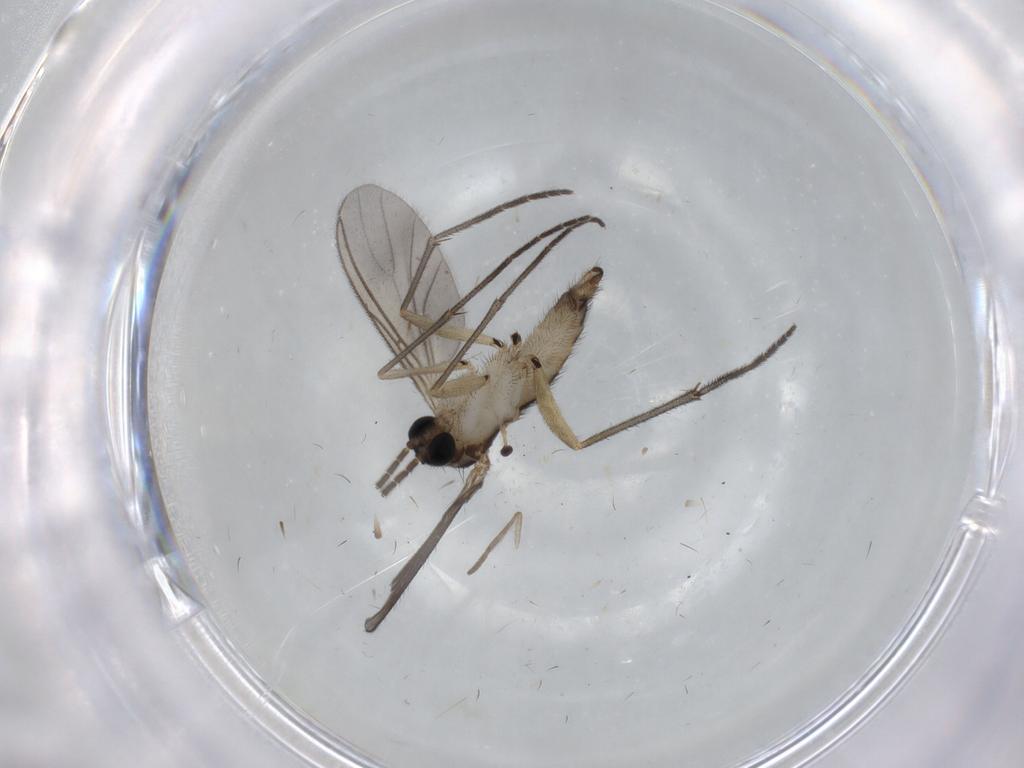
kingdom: Animalia
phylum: Arthropoda
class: Insecta
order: Diptera
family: Sciaridae
